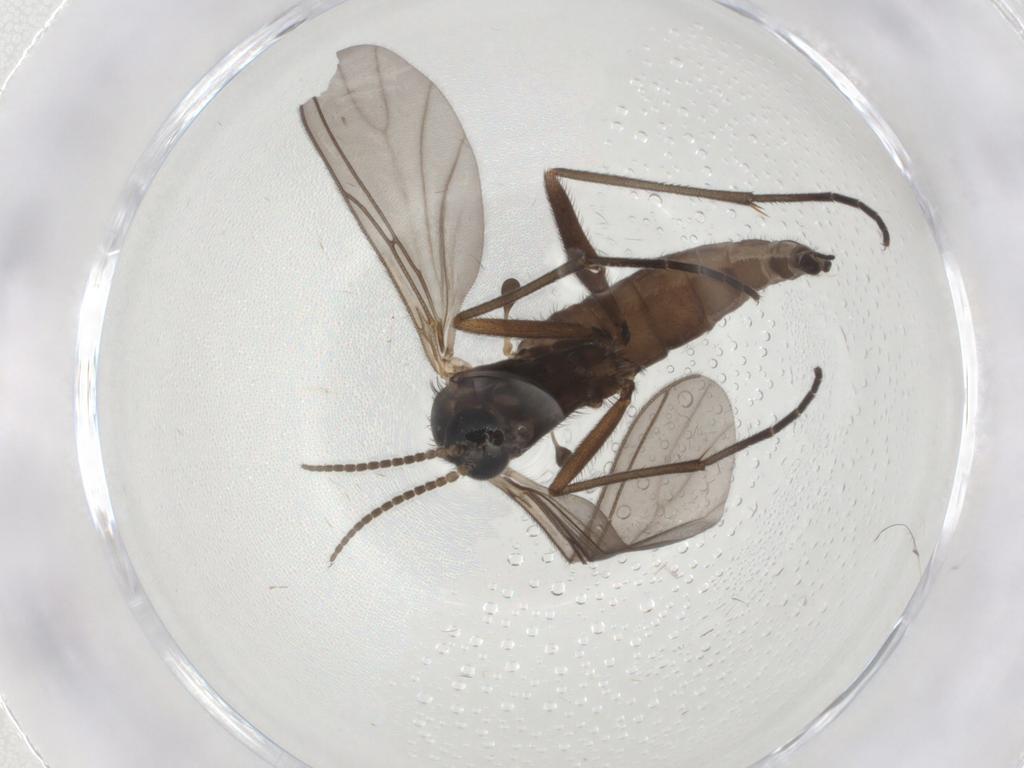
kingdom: Animalia
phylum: Arthropoda
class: Insecta
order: Diptera
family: Sciaridae
